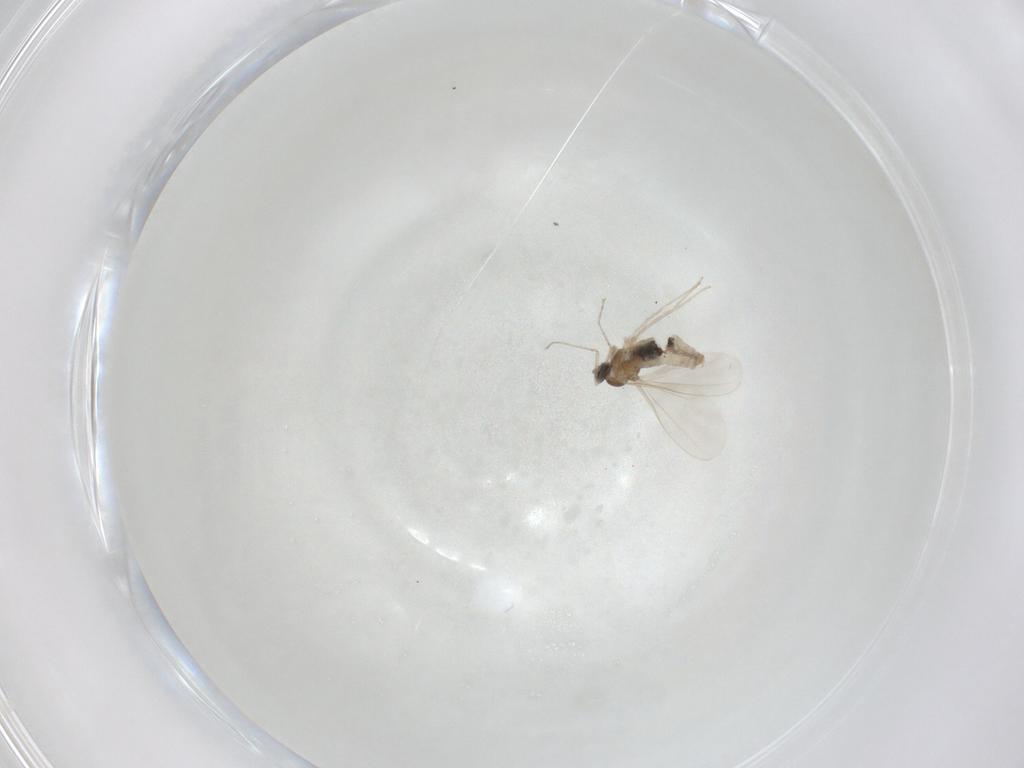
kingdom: Animalia
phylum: Arthropoda
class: Insecta
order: Diptera
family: Cecidomyiidae
